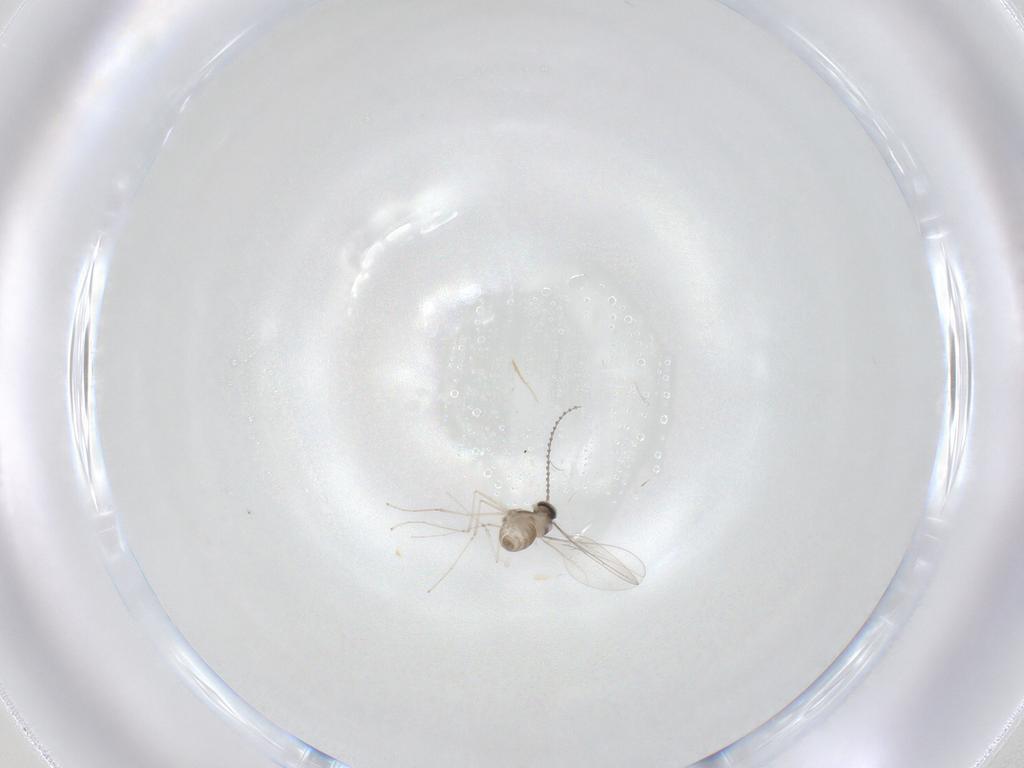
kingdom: Animalia
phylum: Arthropoda
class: Insecta
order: Diptera
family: Cecidomyiidae
